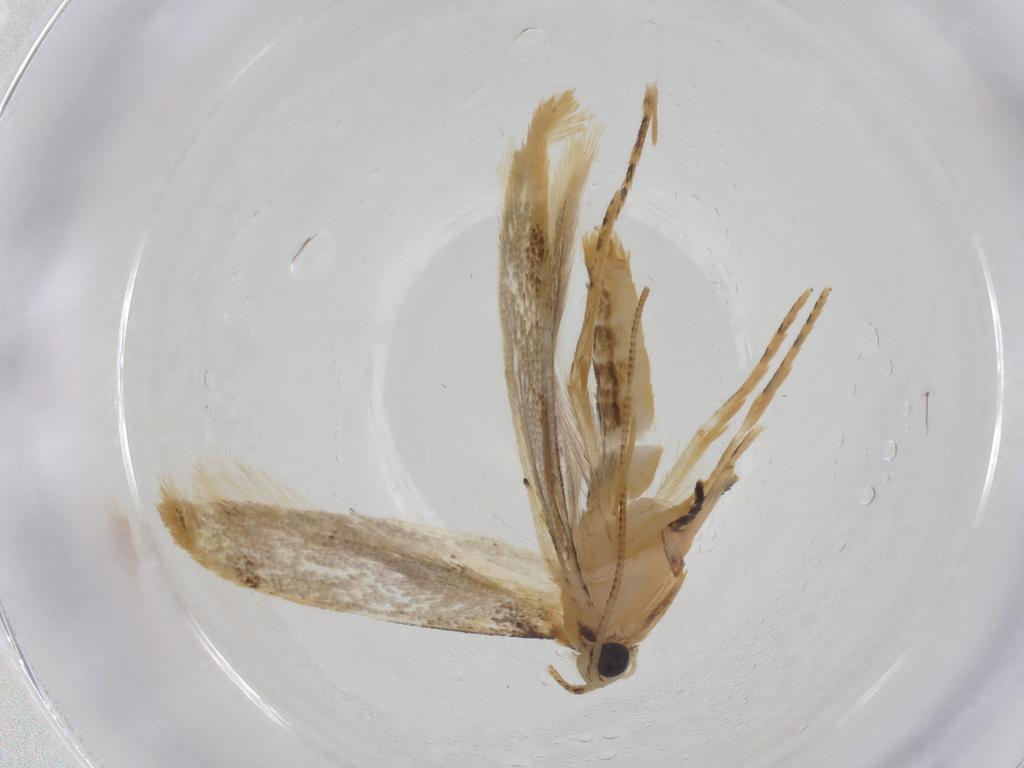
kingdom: Animalia
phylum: Arthropoda
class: Insecta
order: Lepidoptera
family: Tineidae
